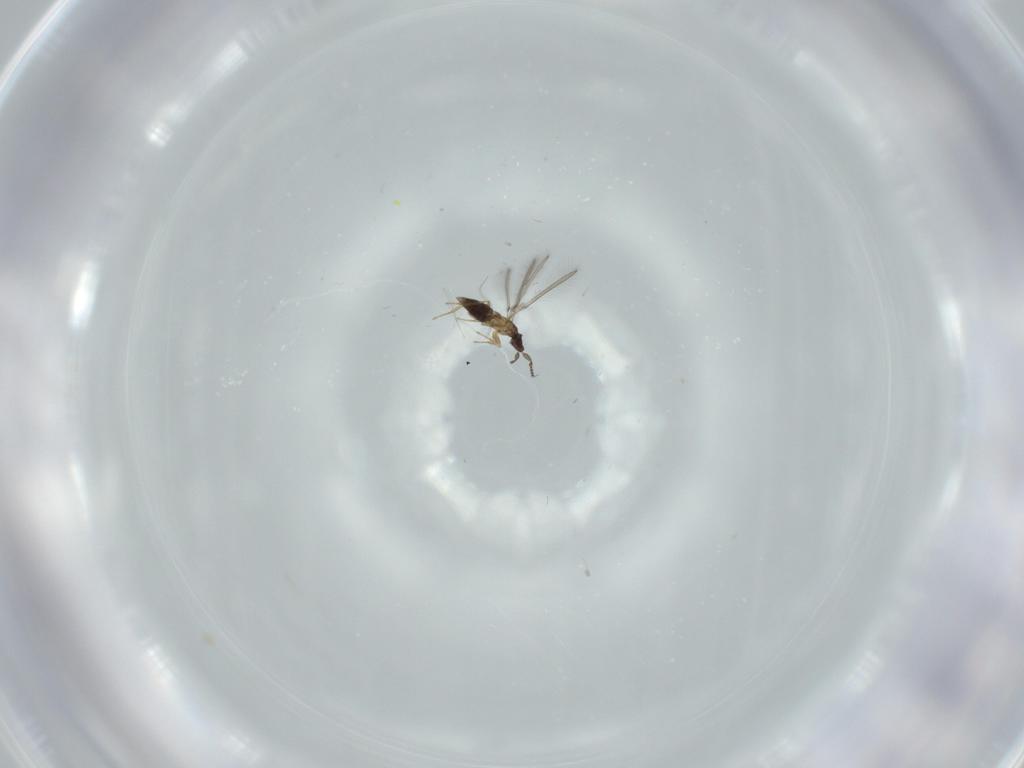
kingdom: Animalia
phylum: Arthropoda
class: Insecta
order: Hymenoptera
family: Mymaridae
